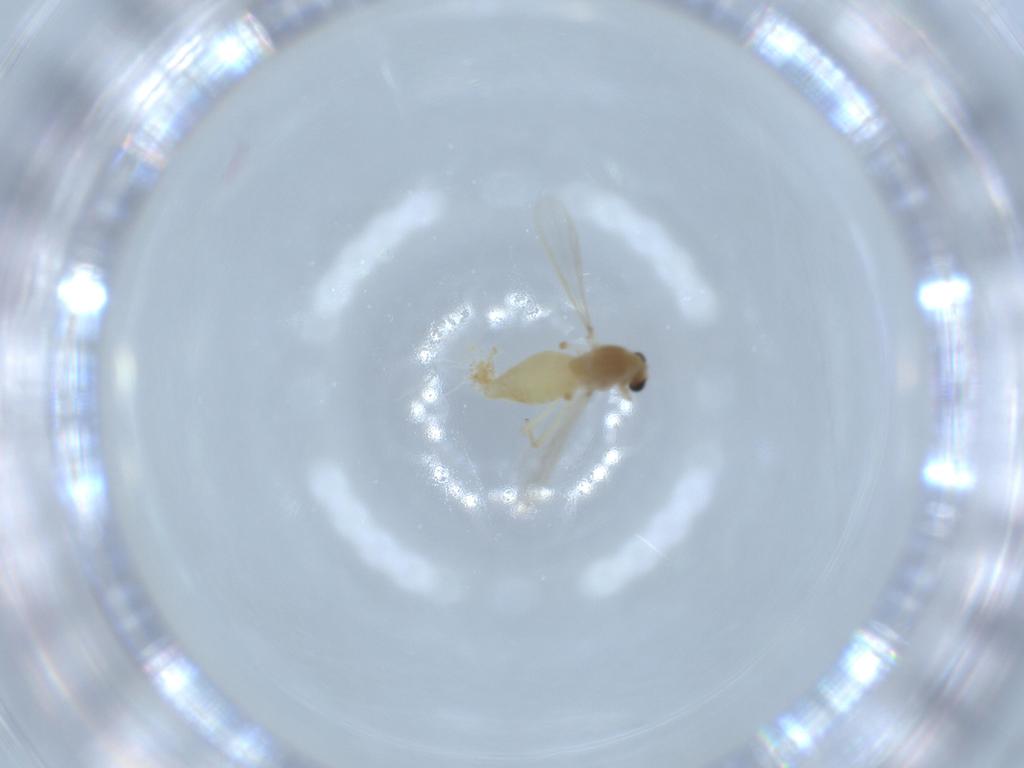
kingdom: Animalia
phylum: Arthropoda
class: Insecta
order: Diptera
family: Chironomidae
